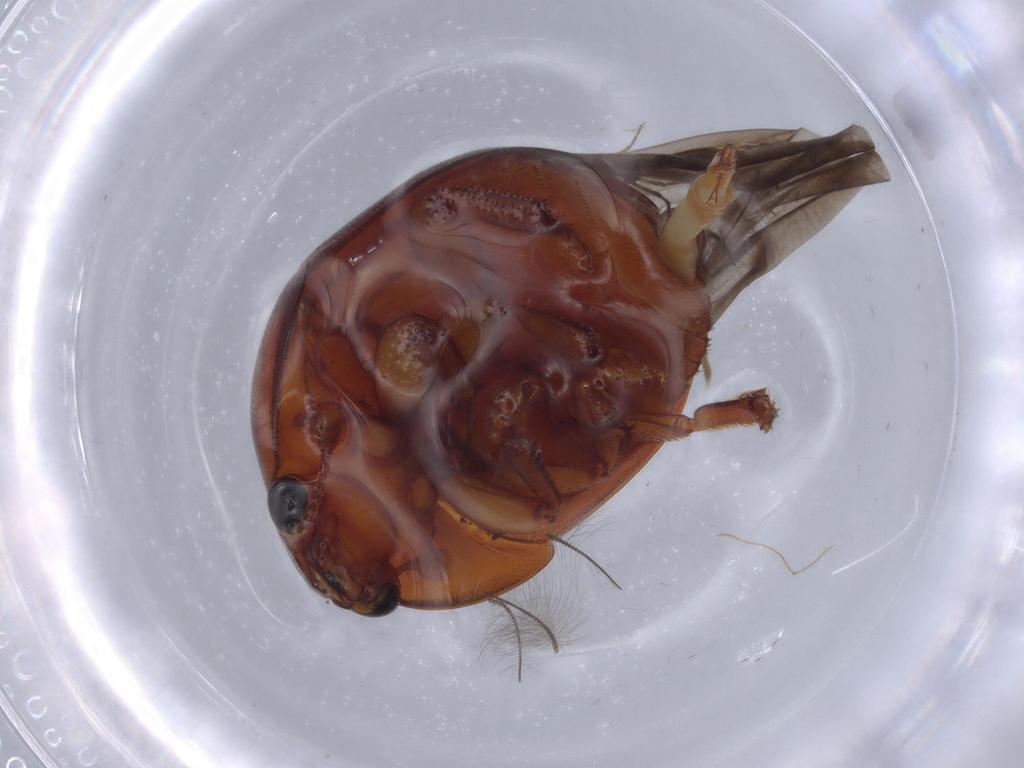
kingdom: Animalia
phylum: Arthropoda
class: Insecta
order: Coleoptera
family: Nitidulidae
